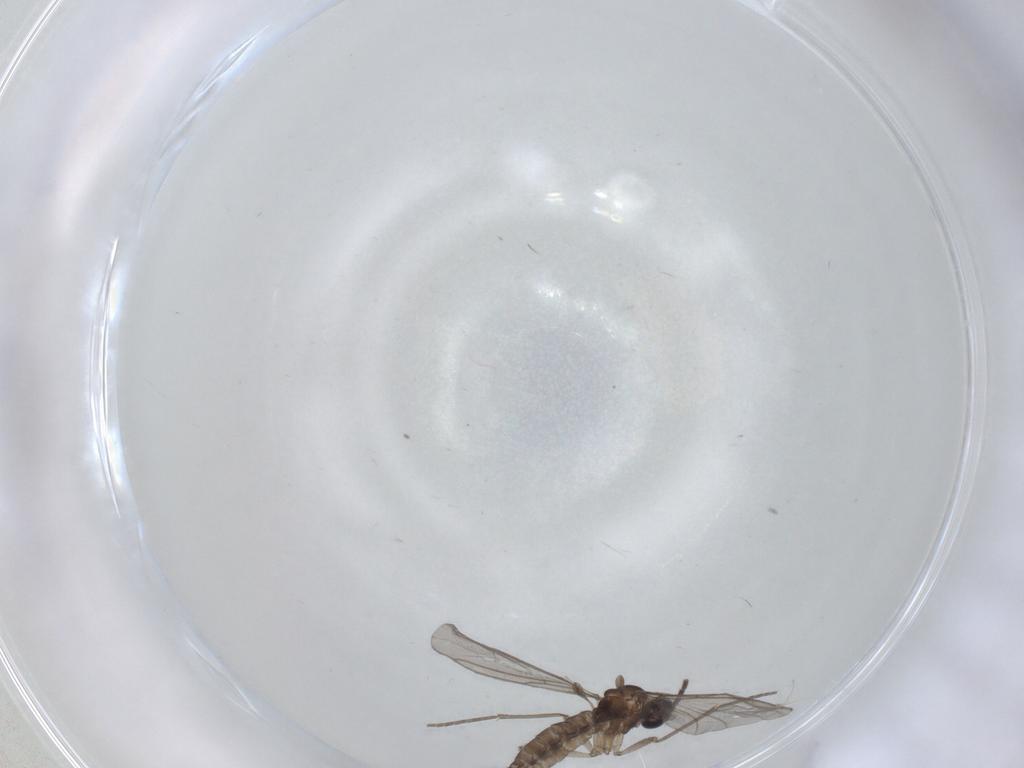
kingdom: Animalia
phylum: Arthropoda
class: Insecta
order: Diptera
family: Sciaridae
